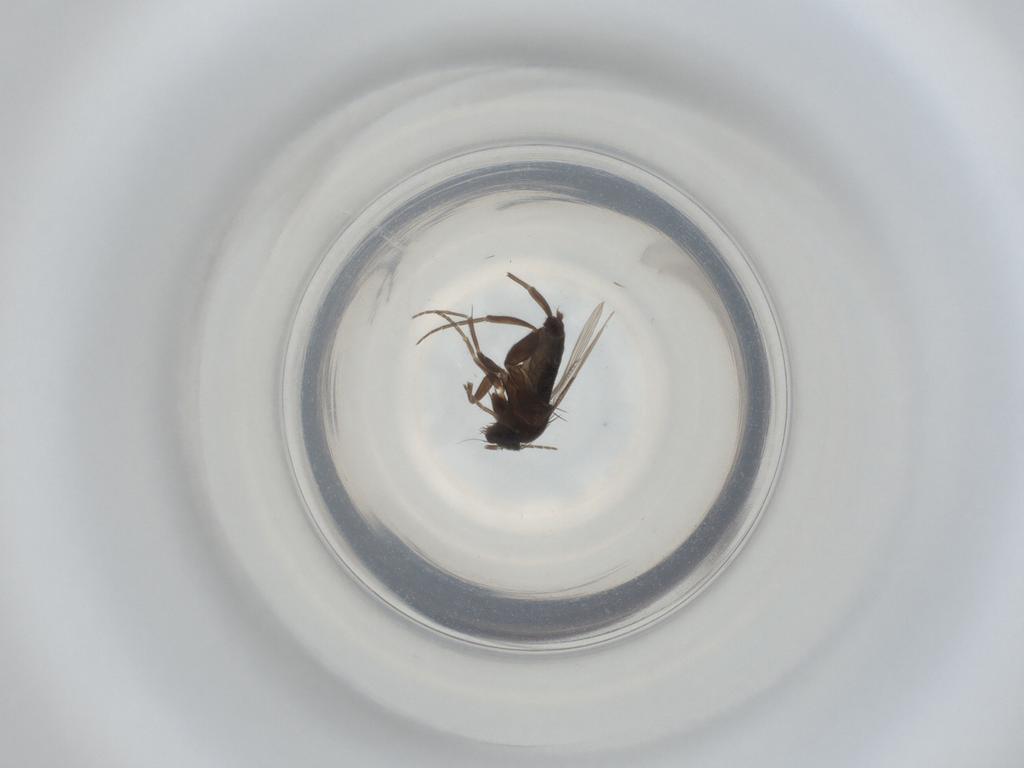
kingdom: Animalia
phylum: Arthropoda
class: Insecta
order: Diptera
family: Phoridae
